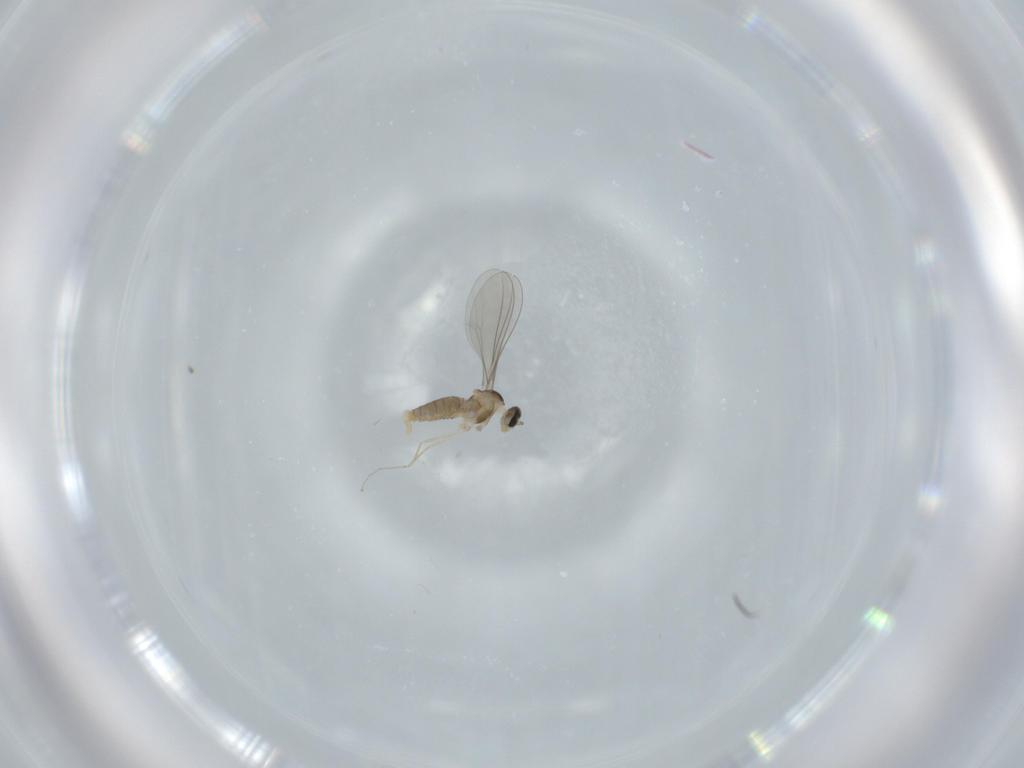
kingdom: Animalia
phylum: Arthropoda
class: Insecta
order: Diptera
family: Cecidomyiidae
